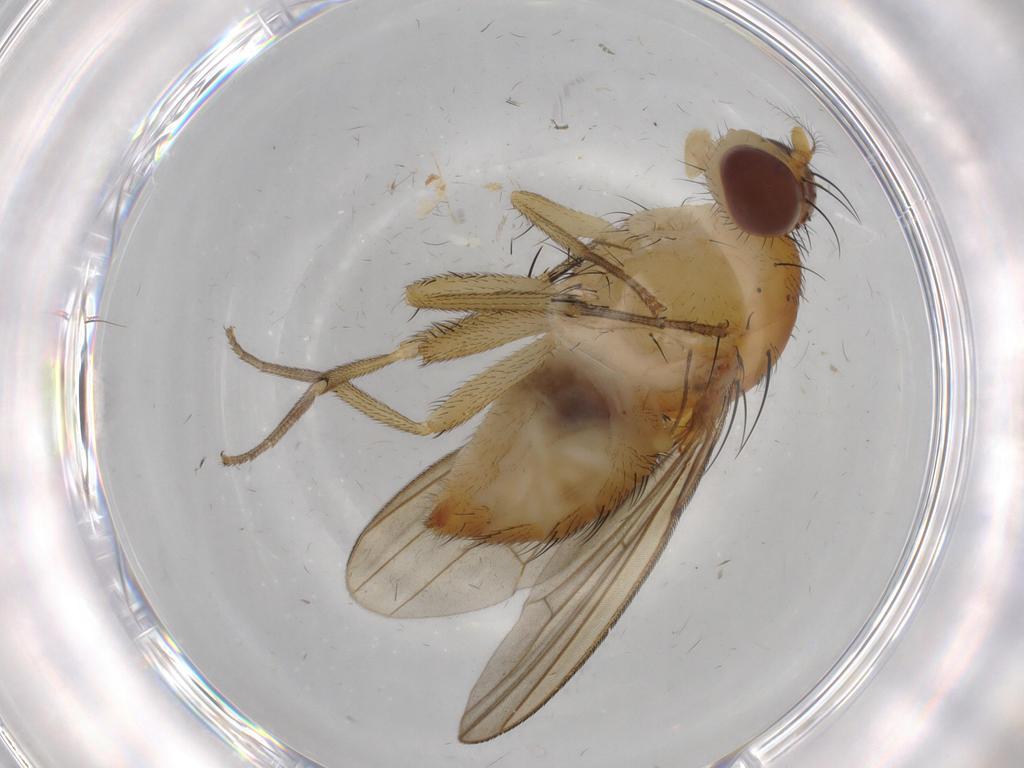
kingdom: Animalia
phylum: Arthropoda
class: Insecta
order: Diptera
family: Chironomidae
